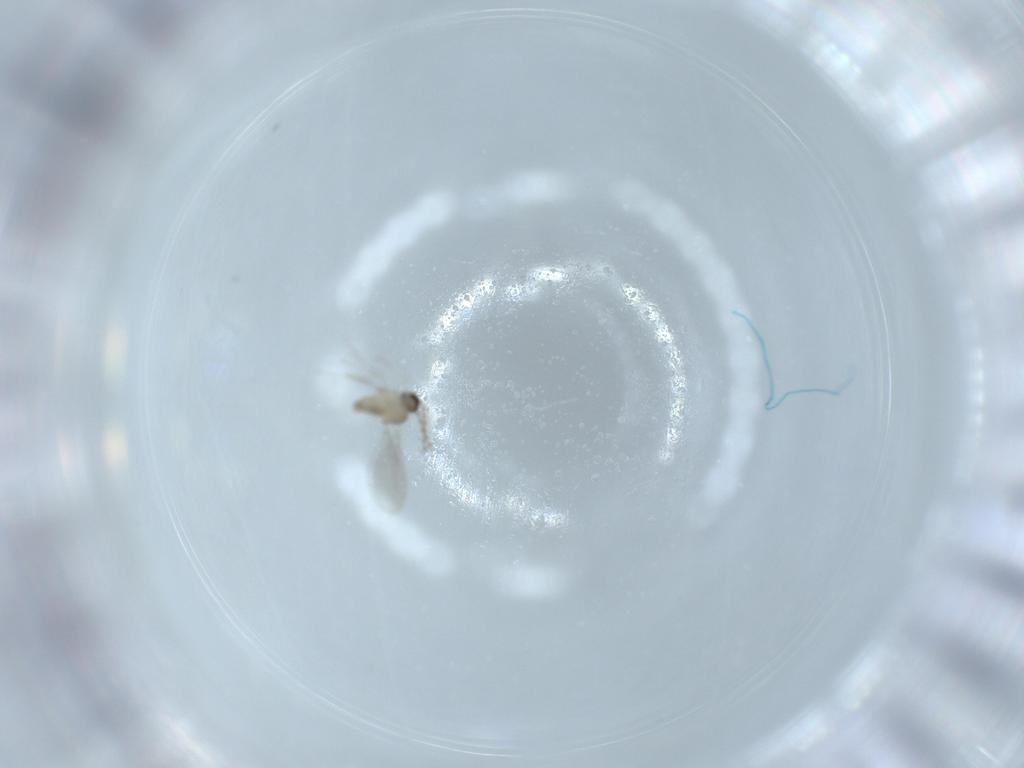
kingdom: Animalia
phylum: Arthropoda
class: Insecta
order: Diptera
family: Cecidomyiidae
